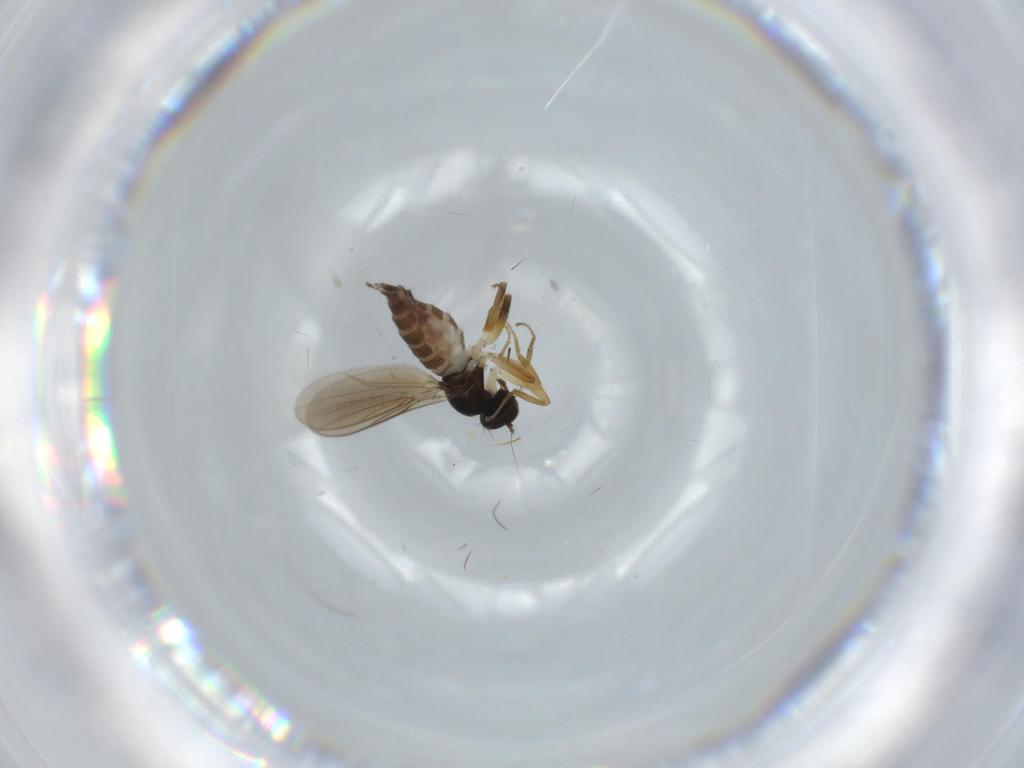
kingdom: Animalia
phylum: Arthropoda
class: Insecta
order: Diptera
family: Hybotidae
